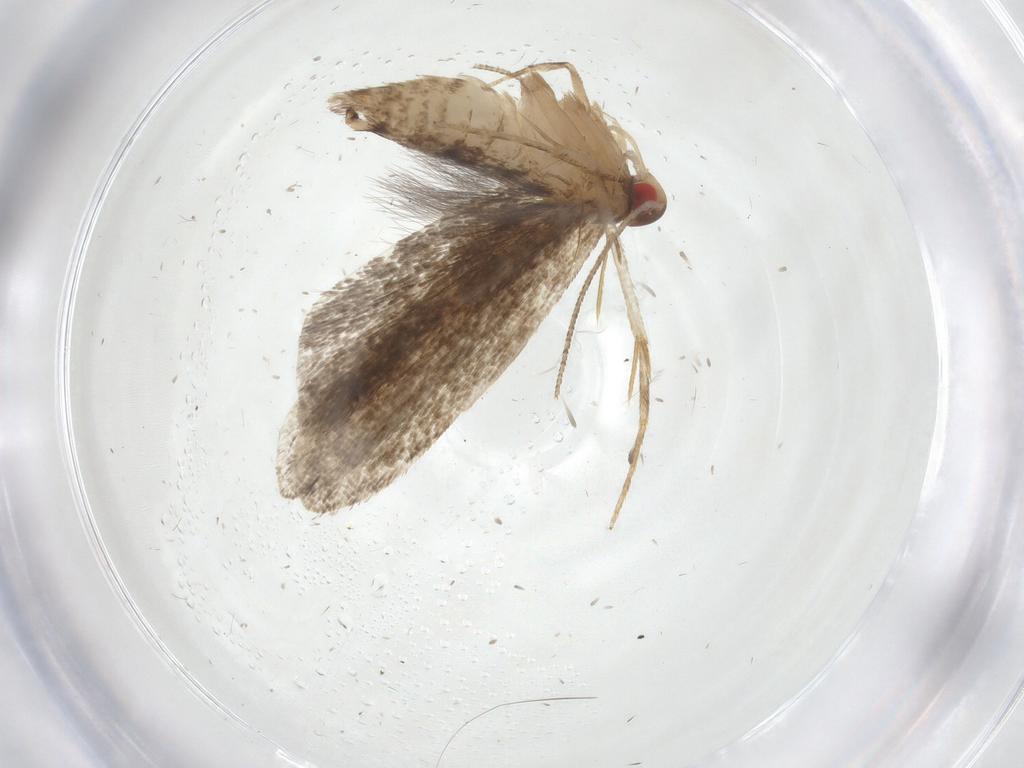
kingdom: Animalia
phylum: Arthropoda
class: Insecta
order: Lepidoptera
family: Gelechiidae
